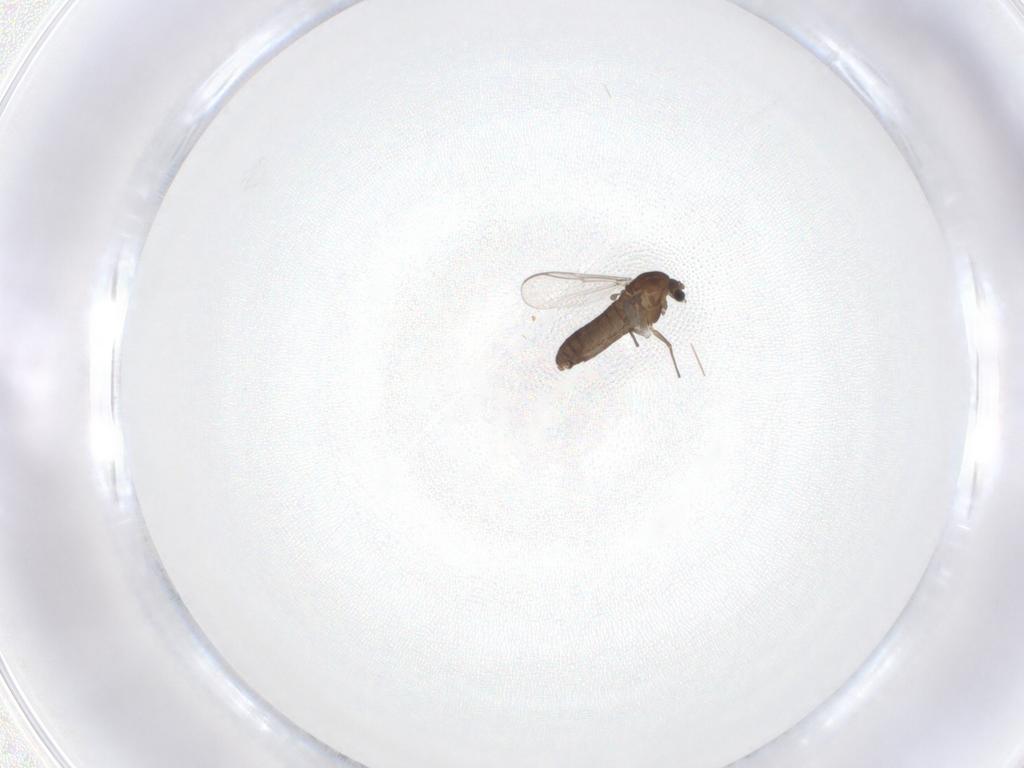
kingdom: Animalia
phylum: Arthropoda
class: Insecta
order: Diptera
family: Chironomidae
